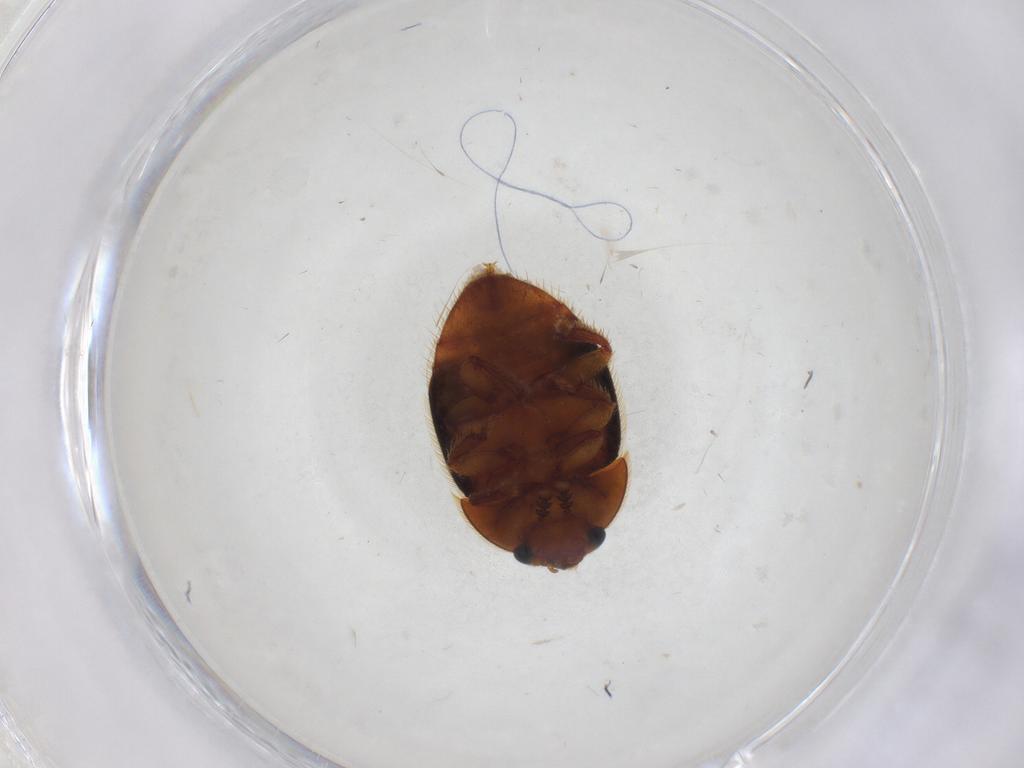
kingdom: Animalia
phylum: Arthropoda
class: Insecta
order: Coleoptera
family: Nitidulidae
